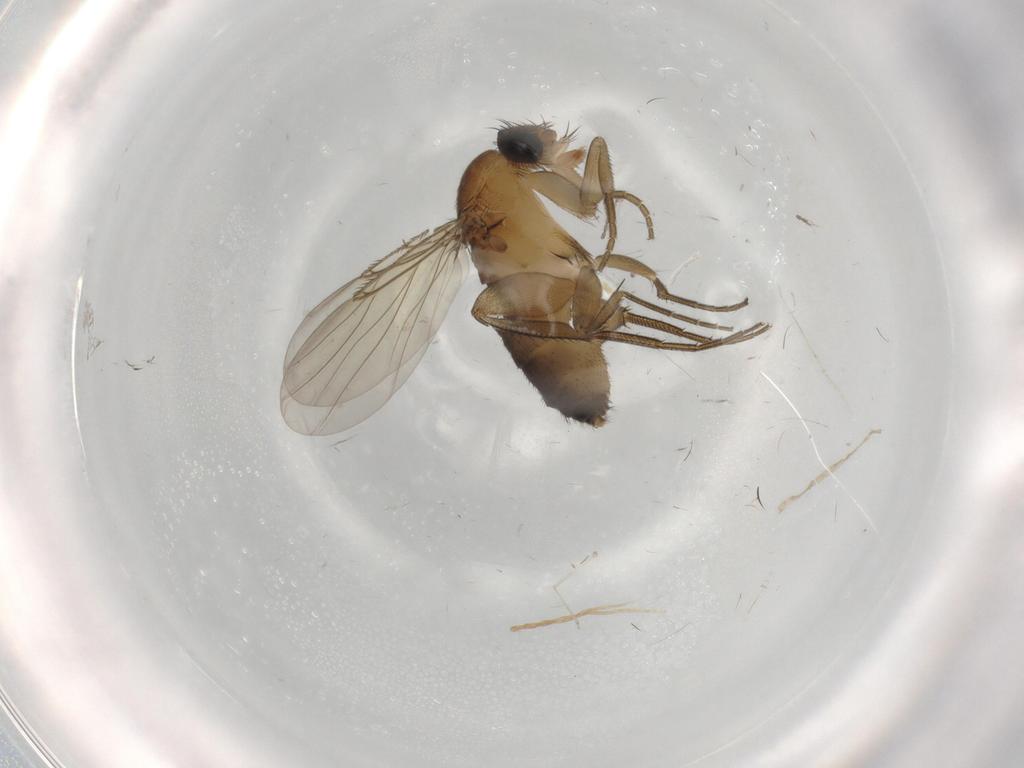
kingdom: Animalia
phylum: Arthropoda
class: Insecta
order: Diptera
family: Phoridae
